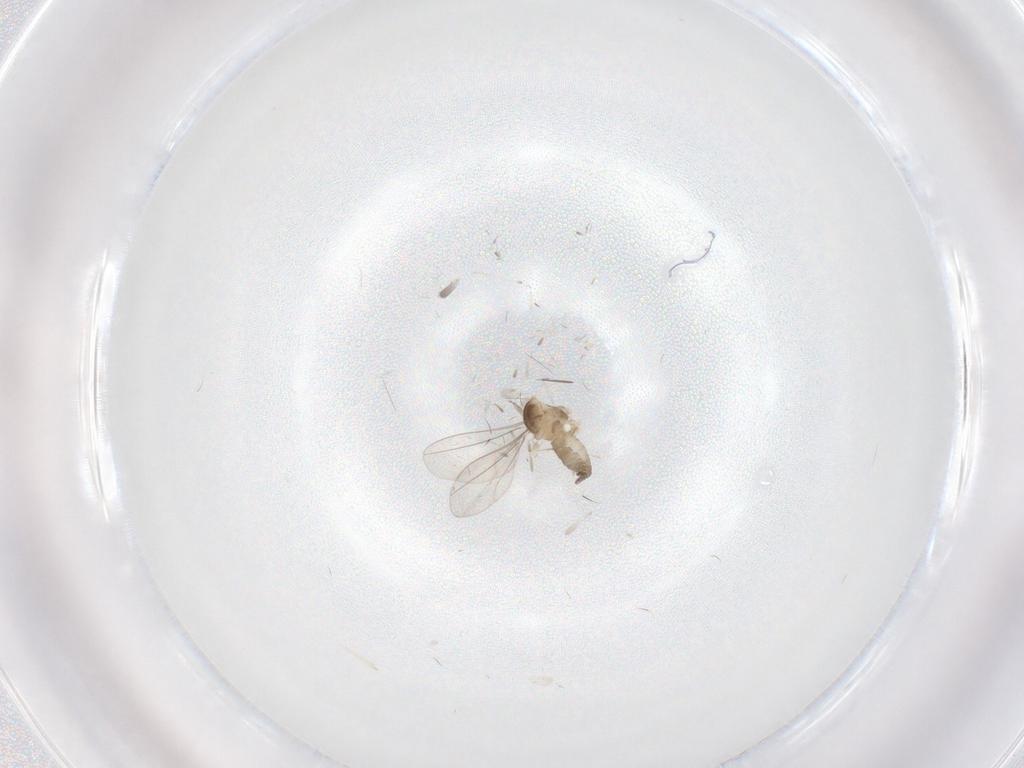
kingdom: Animalia
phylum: Arthropoda
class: Insecta
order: Diptera
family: Cecidomyiidae
